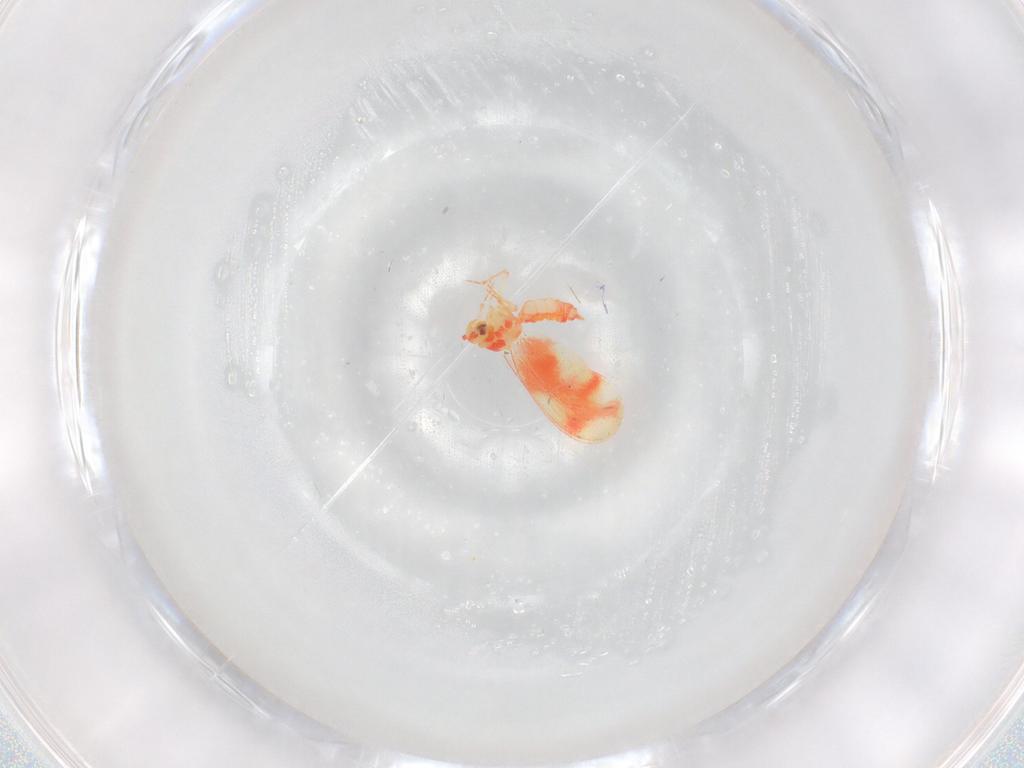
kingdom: Animalia
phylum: Arthropoda
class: Insecta
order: Hemiptera
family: Aleyrodidae
